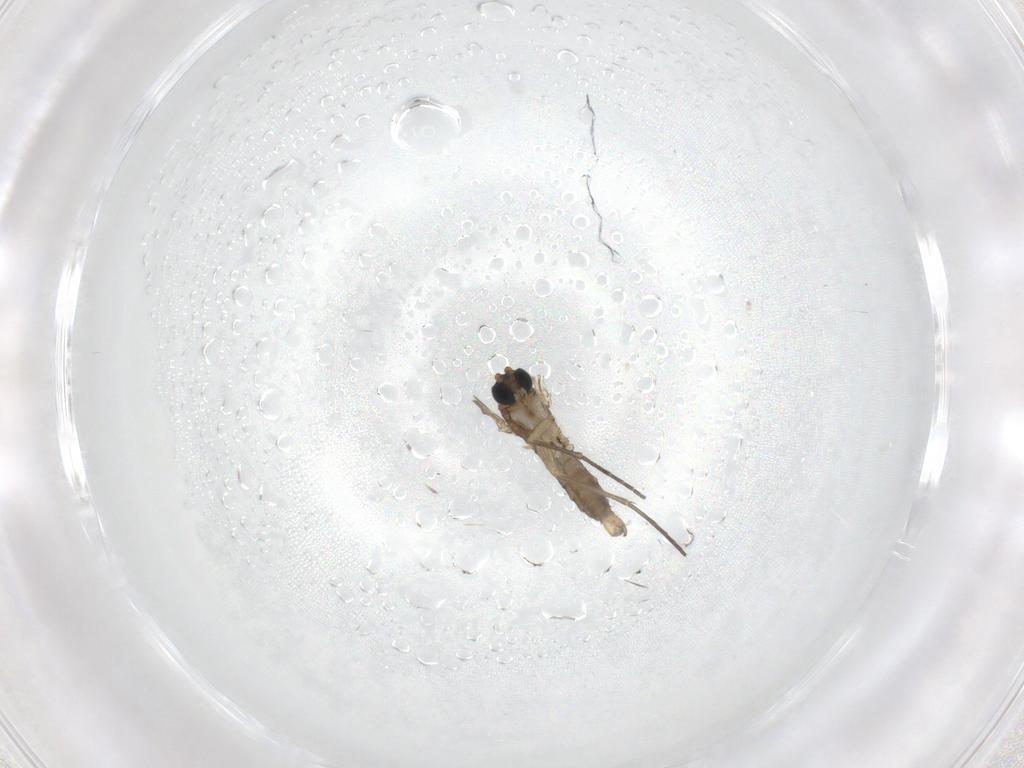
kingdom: Animalia
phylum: Arthropoda
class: Insecta
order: Diptera
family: Sciaridae
